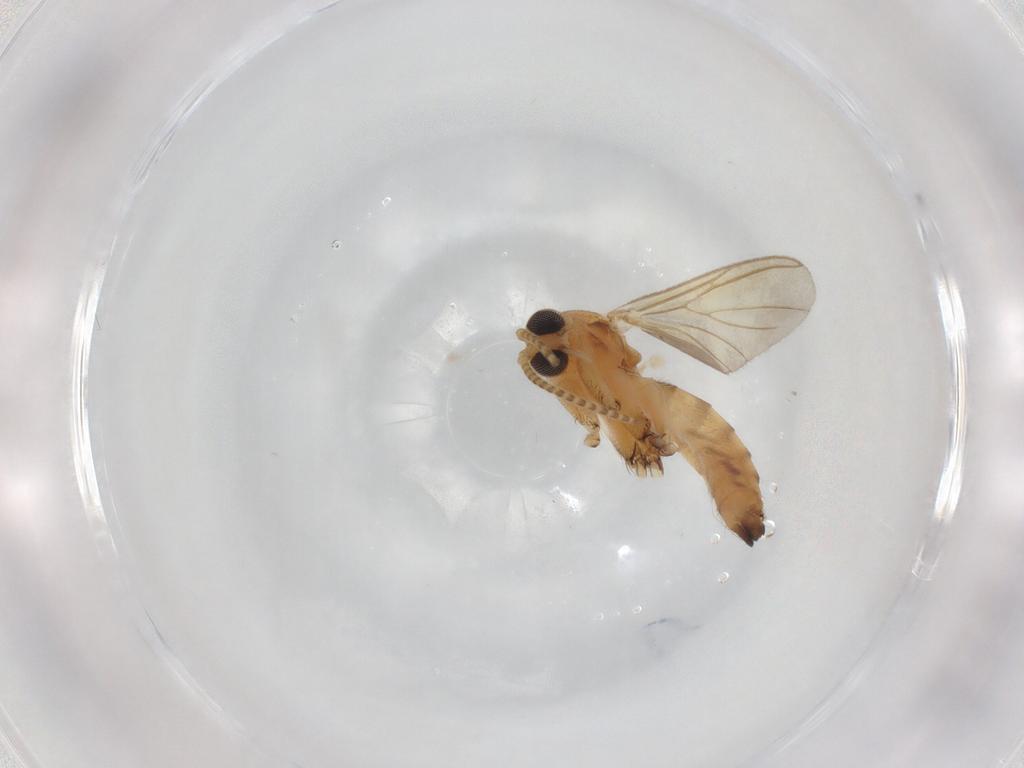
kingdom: Animalia
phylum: Arthropoda
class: Insecta
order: Diptera
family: Mycetophilidae
